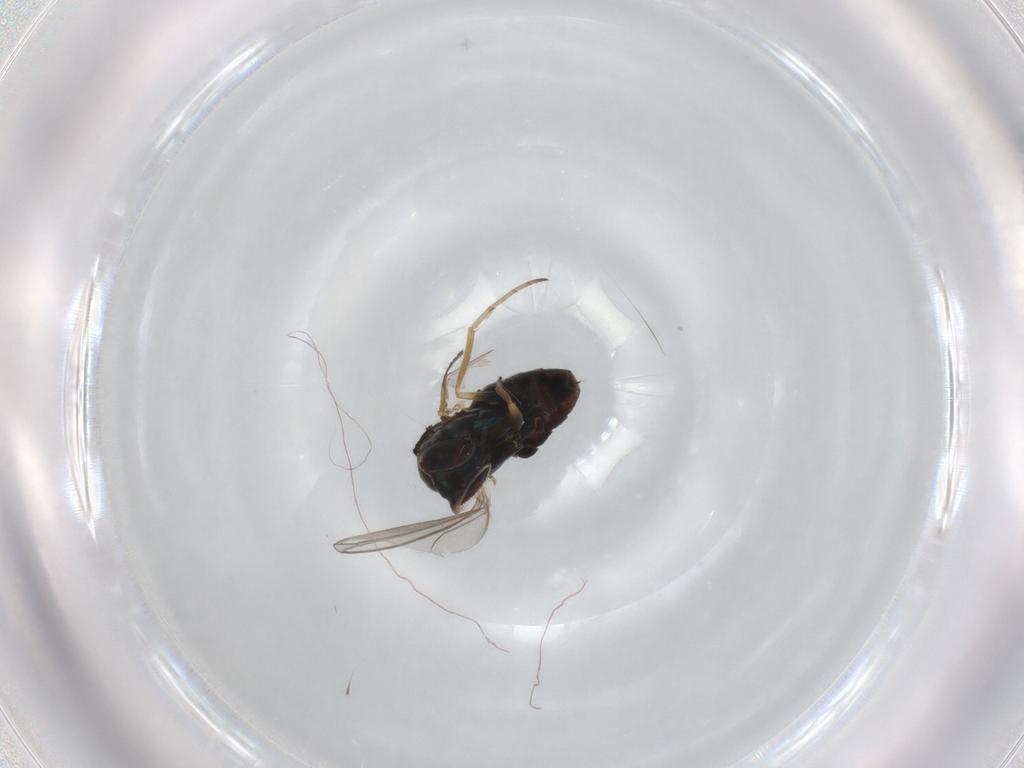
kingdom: Animalia
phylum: Arthropoda
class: Insecta
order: Diptera
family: Dolichopodidae
